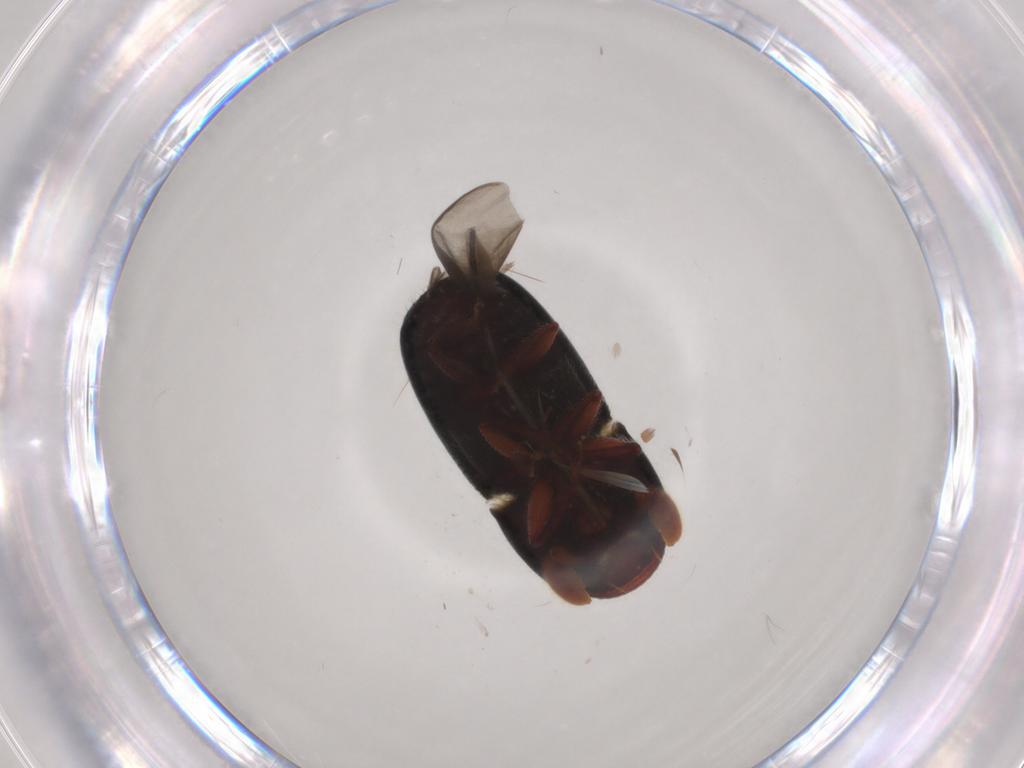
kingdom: Animalia
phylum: Arthropoda
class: Insecta
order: Coleoptera
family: Curculionidae
